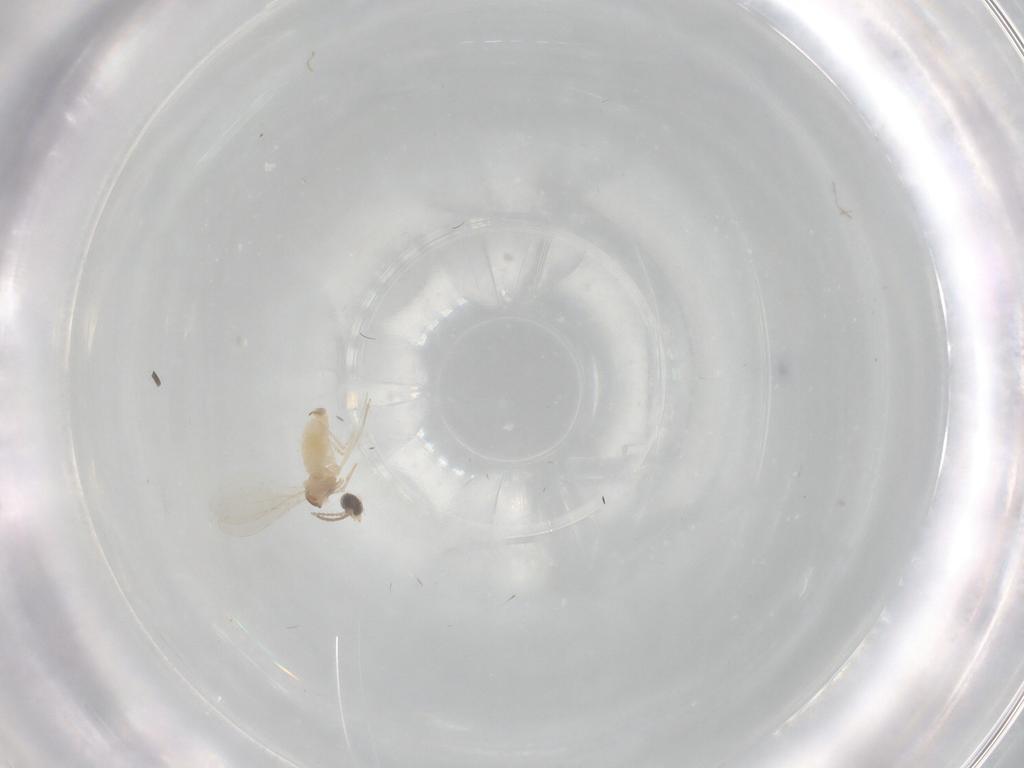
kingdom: Animalia
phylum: Arthropoda
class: Insecta
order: Diptera
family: Cecidomyiidae
